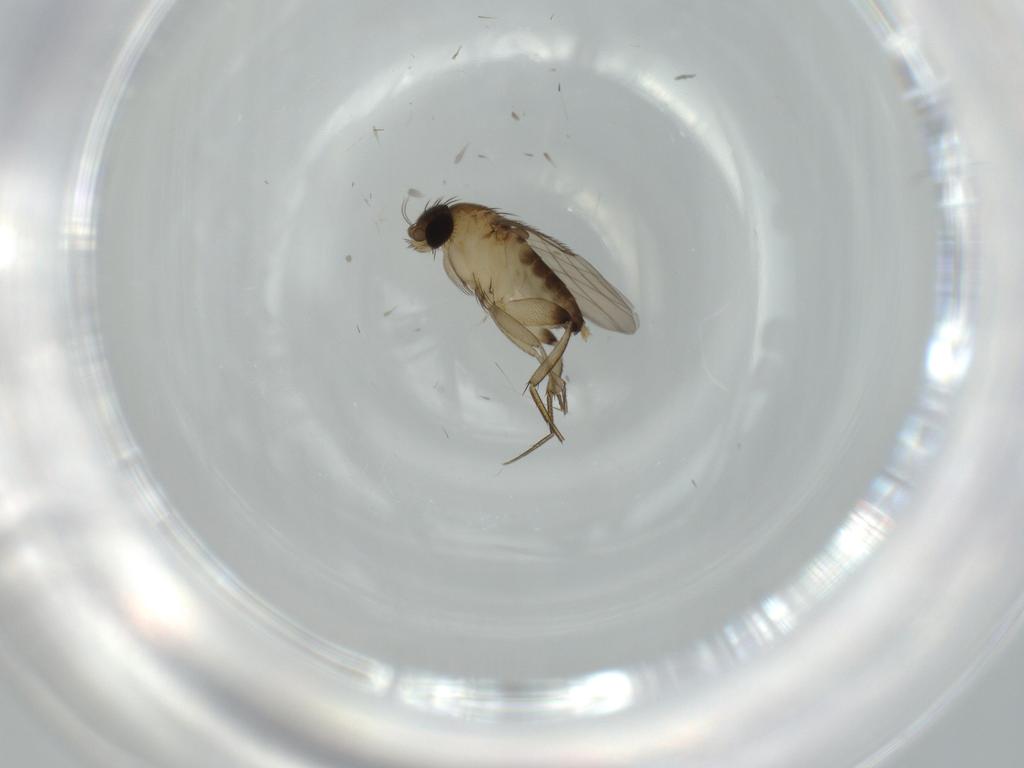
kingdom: Animalia
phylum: Arthropoda
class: Insecta
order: Diptera
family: Phoridae
